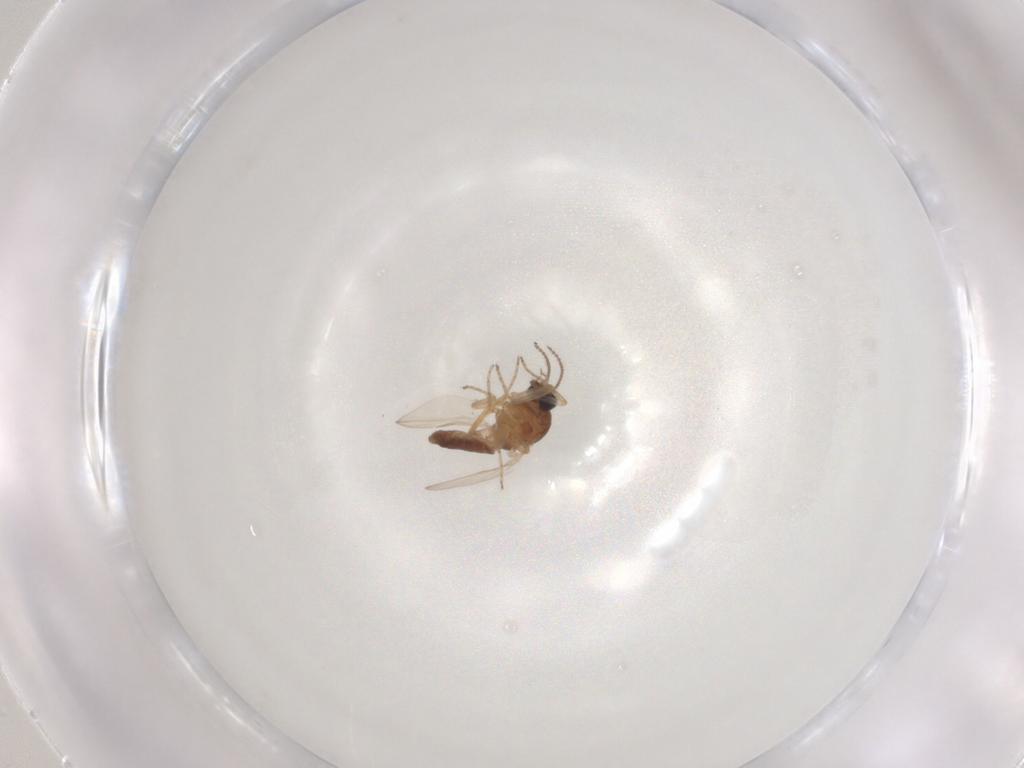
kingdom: Animalia
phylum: Arthropoda
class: Insecta
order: Diptera
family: Ceratopogonidae
